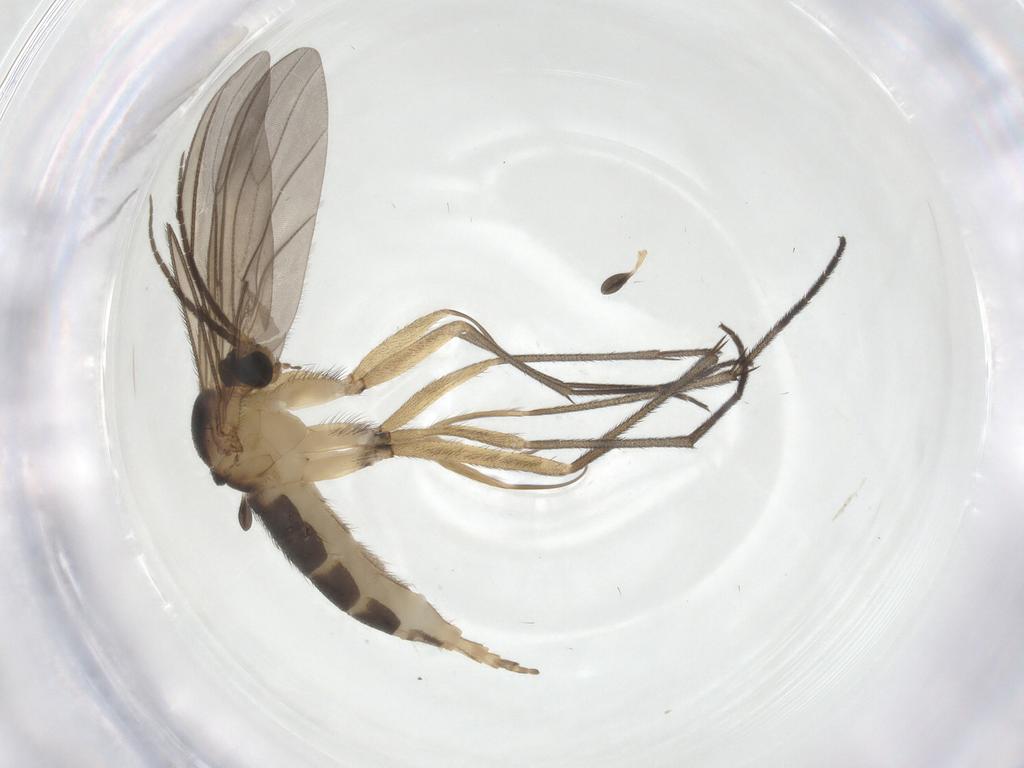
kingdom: Animalia
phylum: Arthropoda
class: Insecta
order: Diptera
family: Sciaridae
